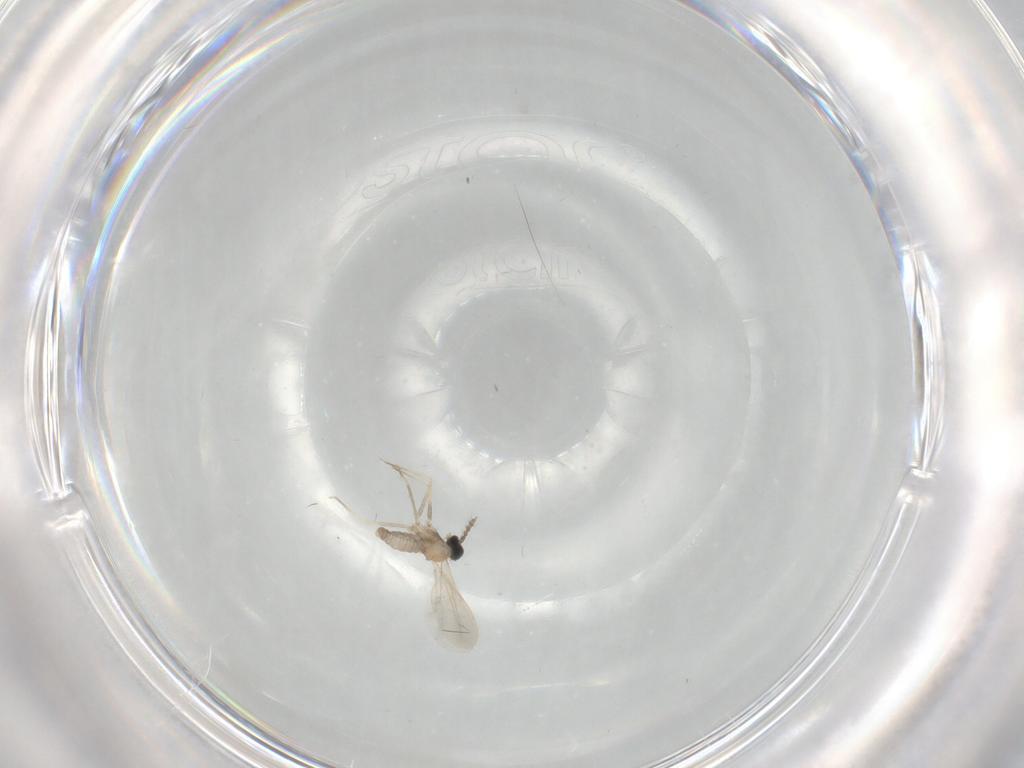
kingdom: Animalia
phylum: Arthropoda
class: Insecta
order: Diptera
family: Cecidomyiidae
